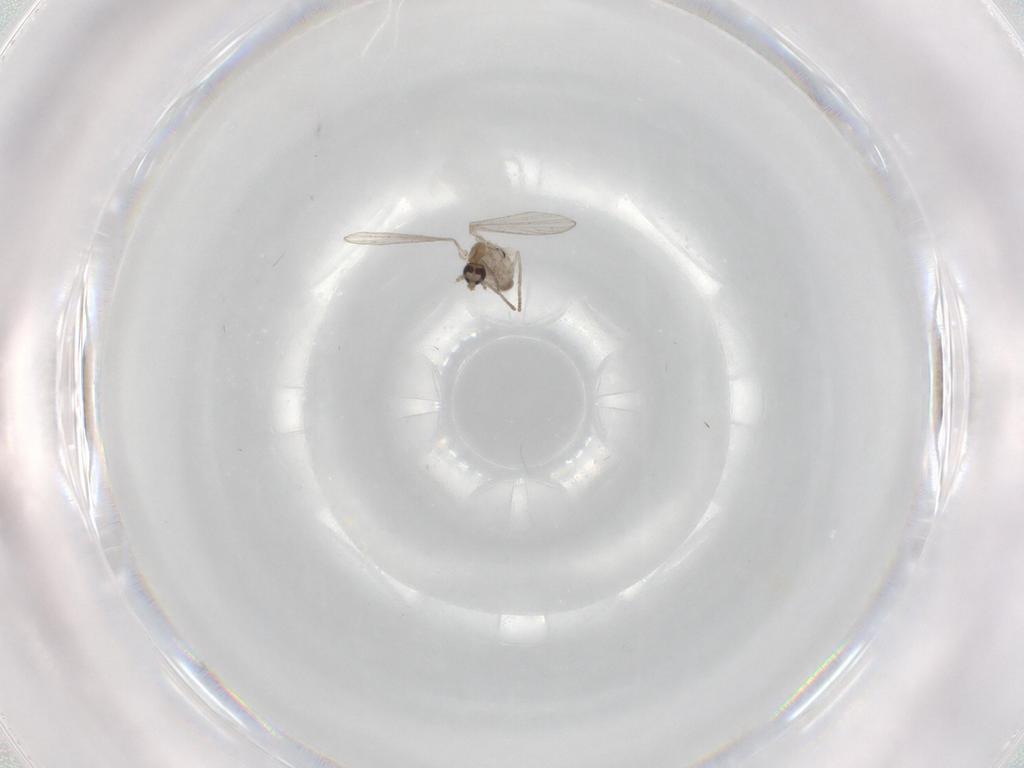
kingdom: Animalia
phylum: Arthropoda
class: Insecta
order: Diptera
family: Psychodidae
